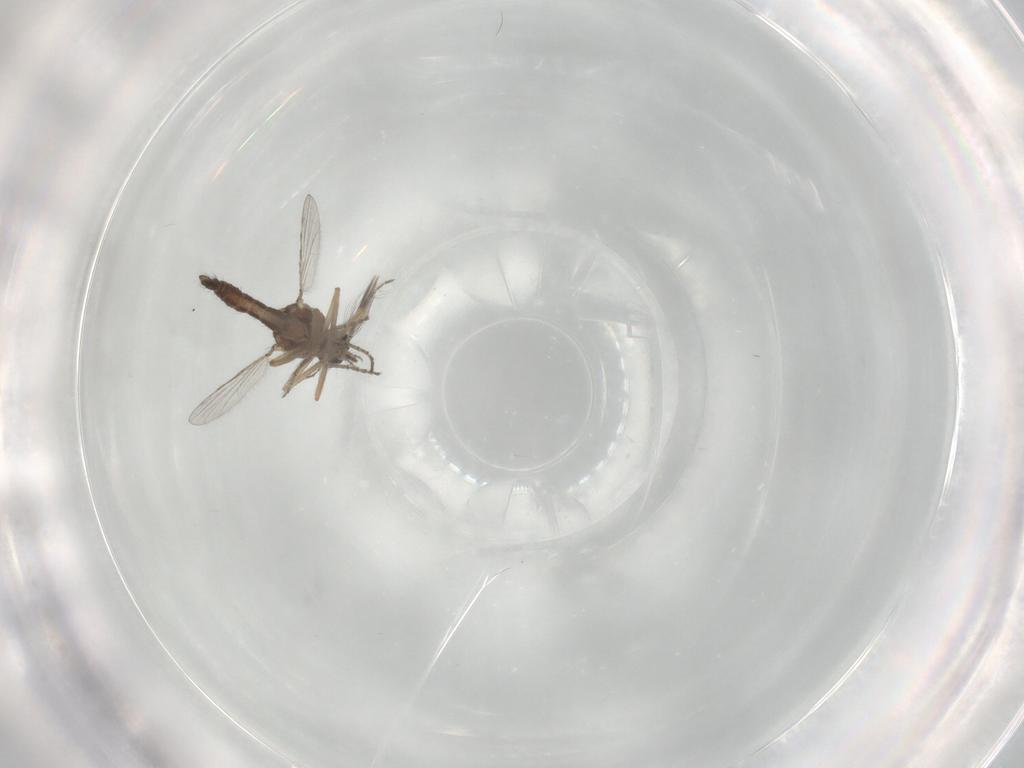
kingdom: Animalia
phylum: Arthropoda
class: Insecta
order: Diptera
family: Ceratopogonidae
